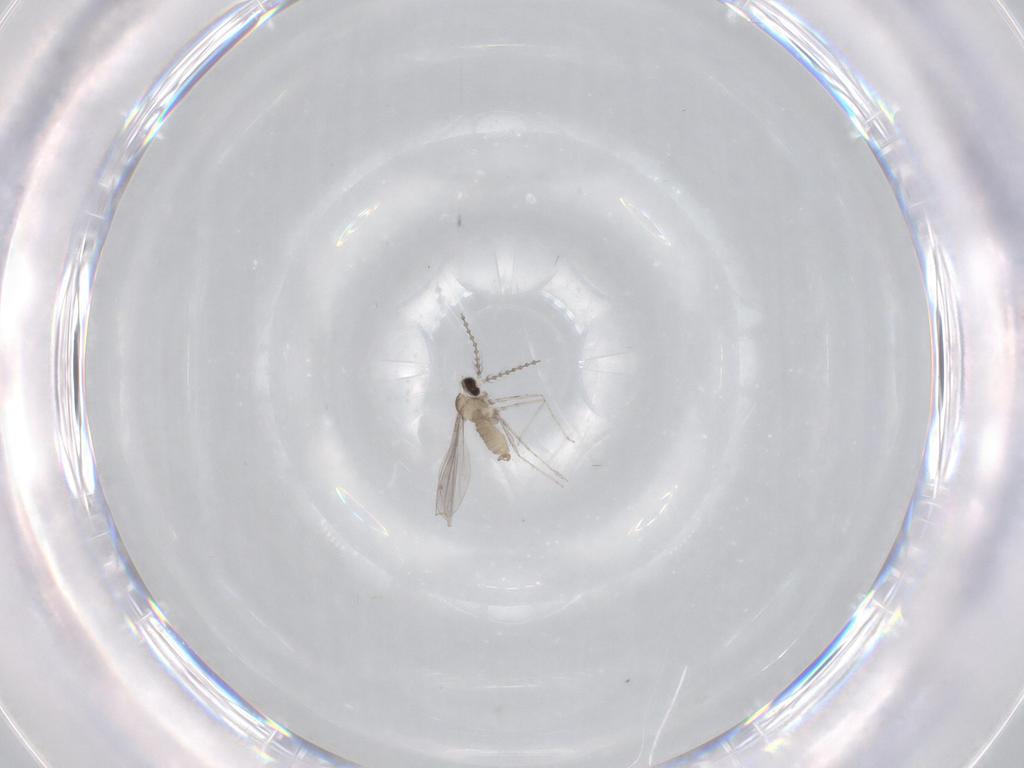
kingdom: Animalia
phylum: Arthropoda
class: Insecta
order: Diptera
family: Cecidomyiidae
